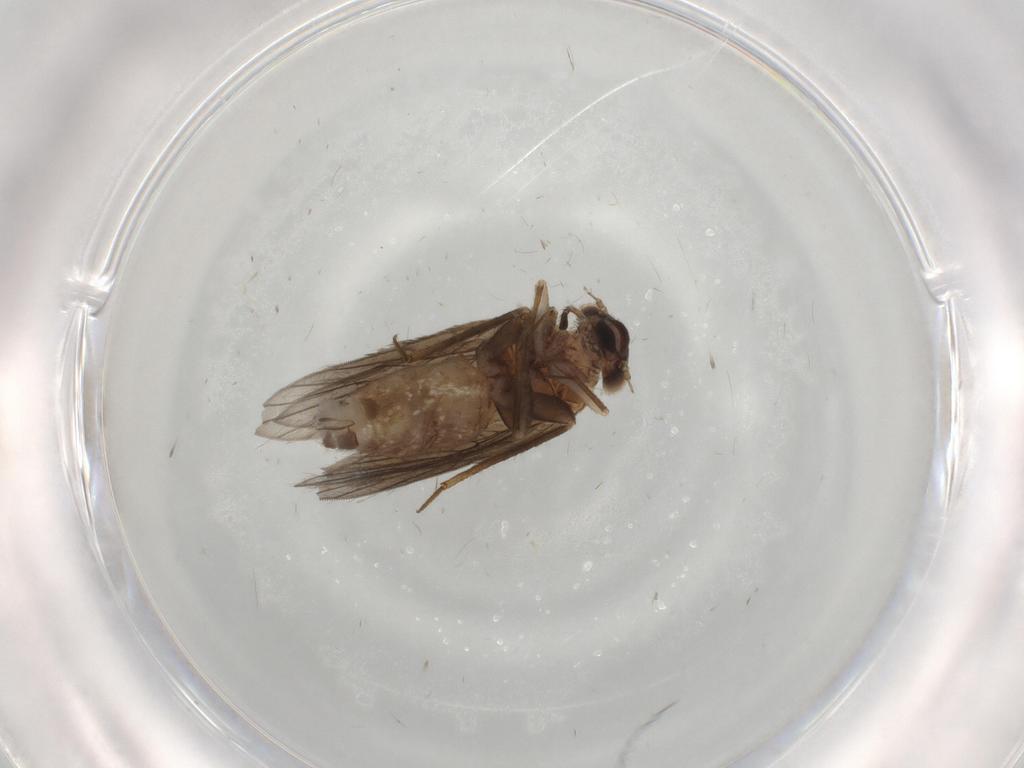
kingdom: Animalia
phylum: Arthropoda
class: Insecta
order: Psocodea
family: Lepidopsocidae
